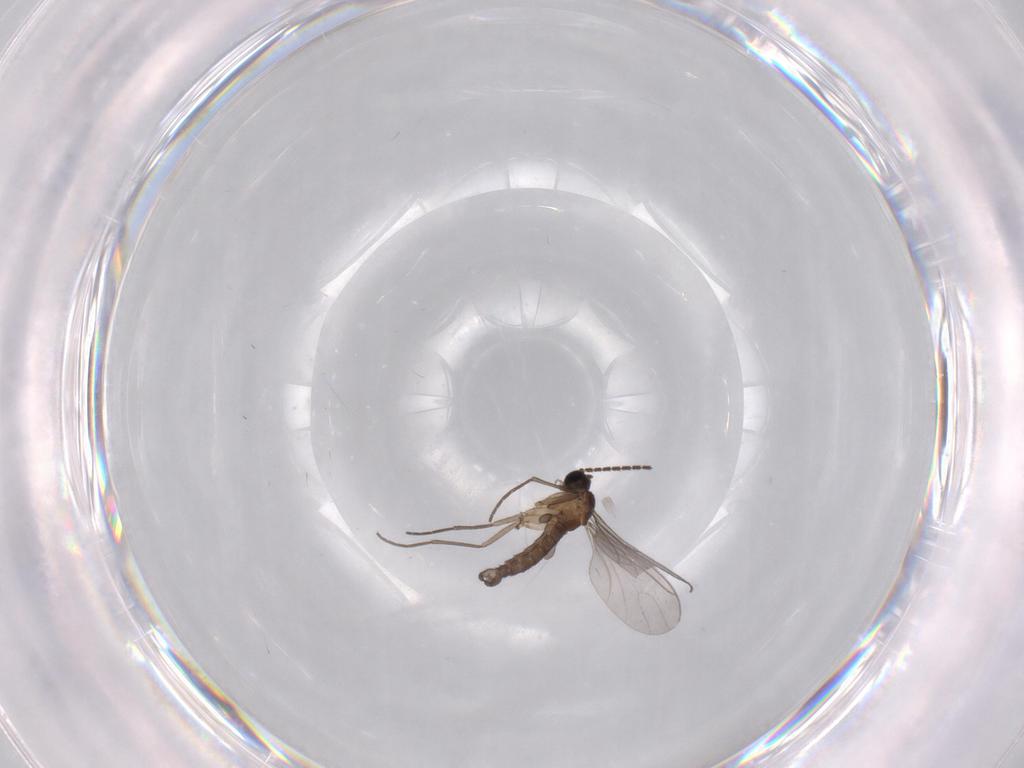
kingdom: Animalia
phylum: Arthropoda
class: Insecta
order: Diptera
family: Sciaridae
